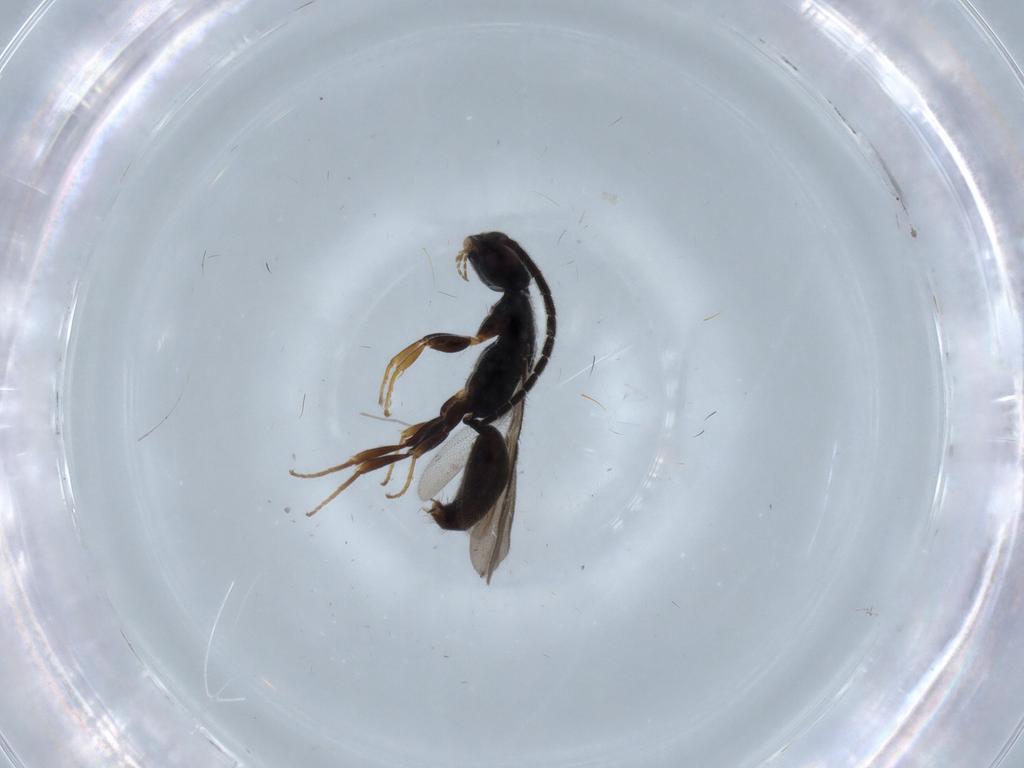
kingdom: Animalia
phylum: Arthropoda
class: Insecta
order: Hymenoptera
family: Bethylidae
